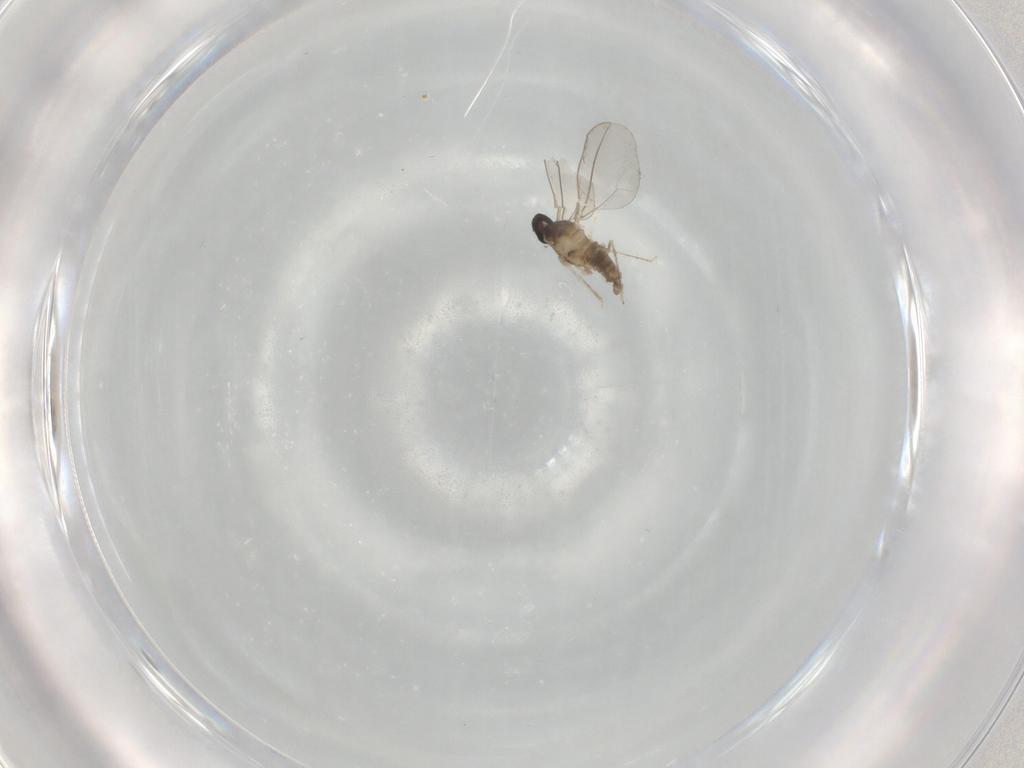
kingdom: Animalia
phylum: Arthropoda
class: Insecta
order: Diptera
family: Cecidomyiidae
